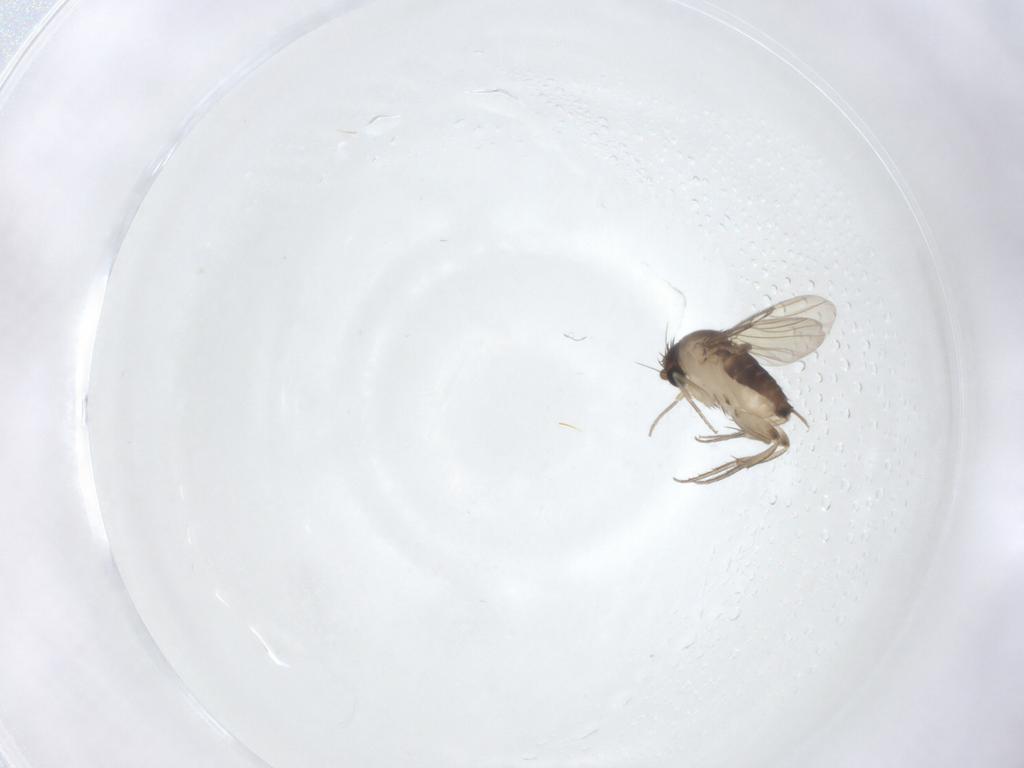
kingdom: Animalia
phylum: Arthropoda
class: Insecta
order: Diptera
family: Phoridae
